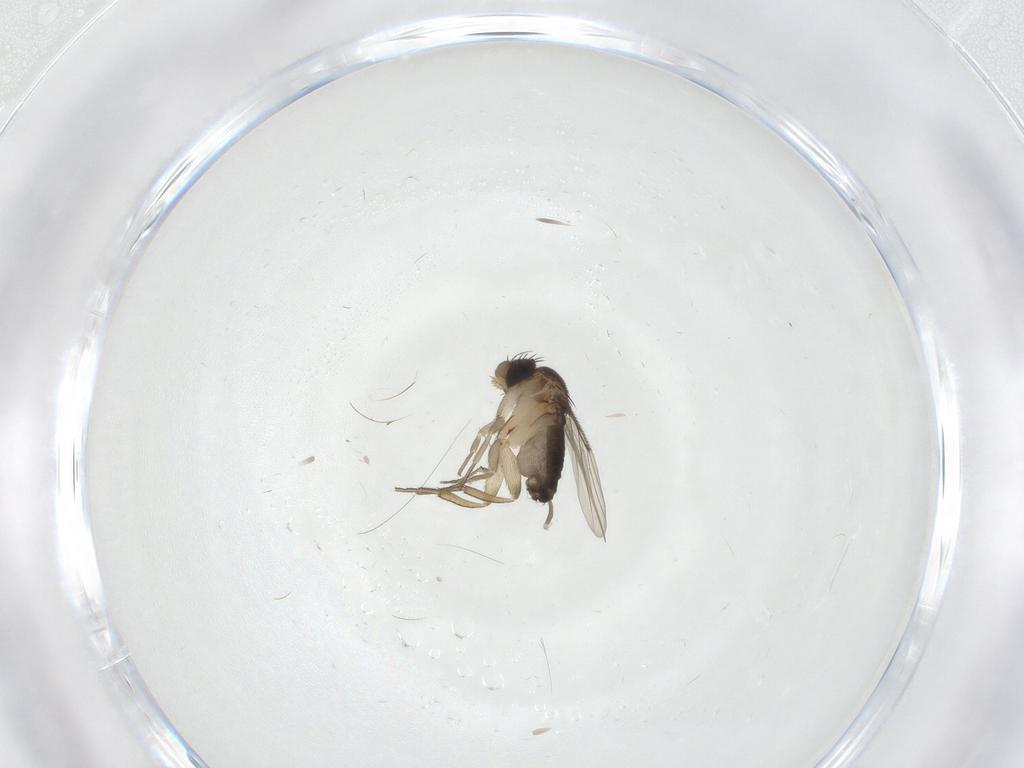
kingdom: Animalia
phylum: Arthropoda
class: Insecta
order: Diptera
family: Phoridae
